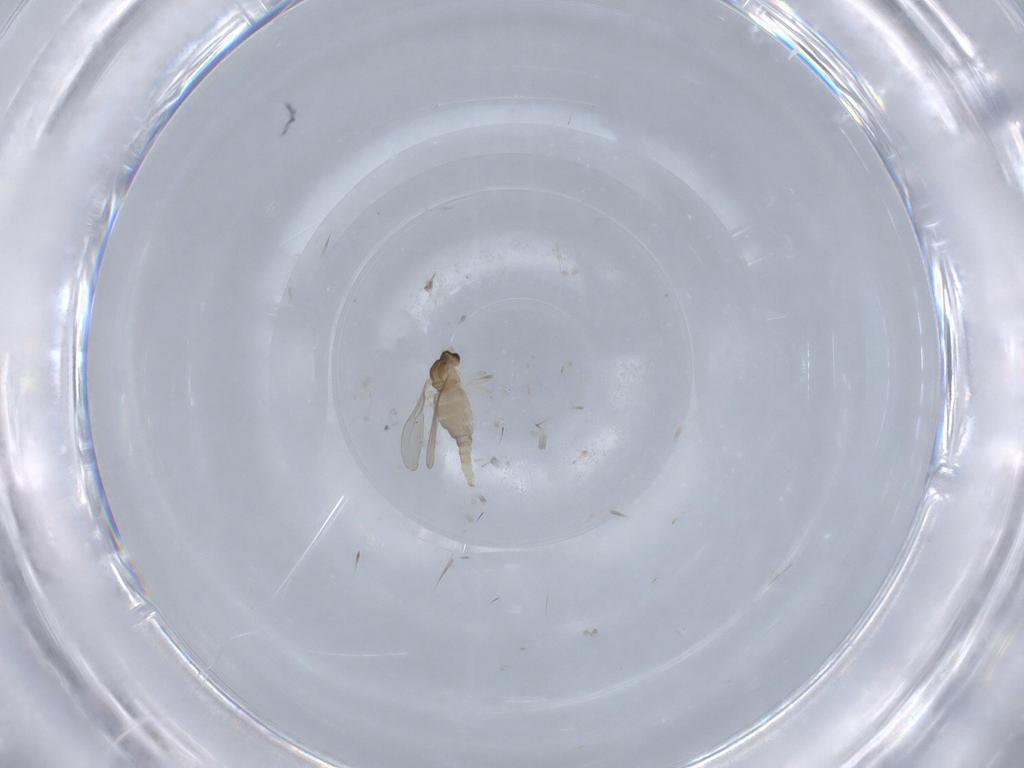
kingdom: Animalia
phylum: Arthropoda
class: Insecta
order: Diptera
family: Cecidomyiidae
